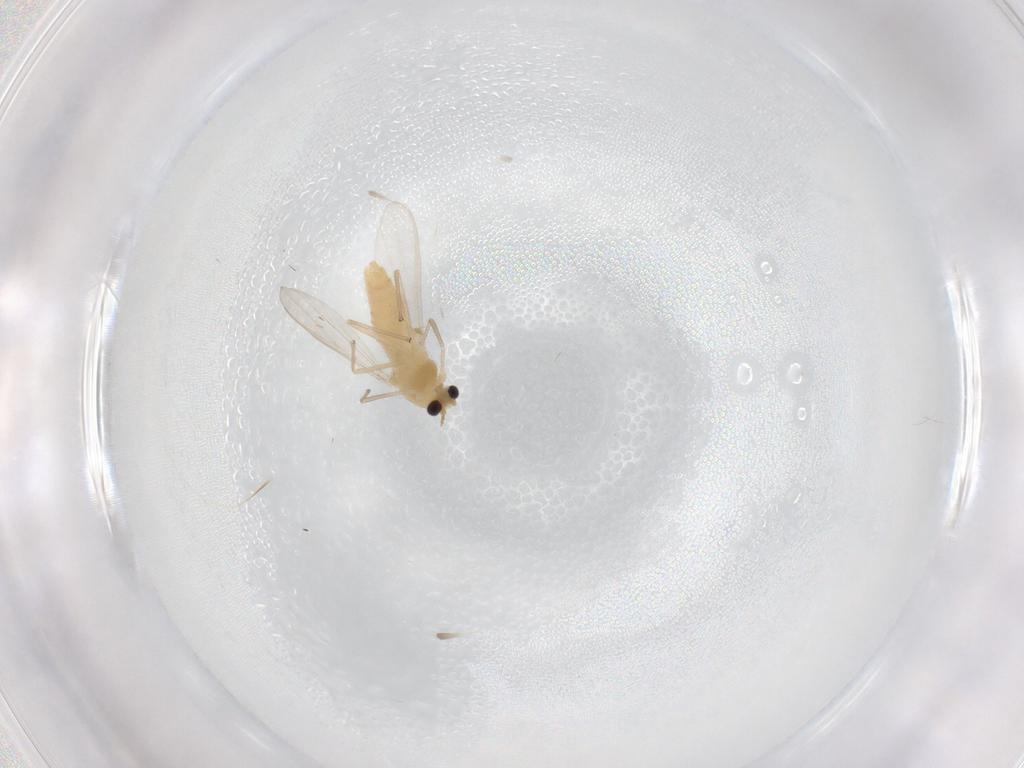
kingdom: Animalia
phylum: Arthropoda
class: Insecta
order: Diptera
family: Chironomidae
